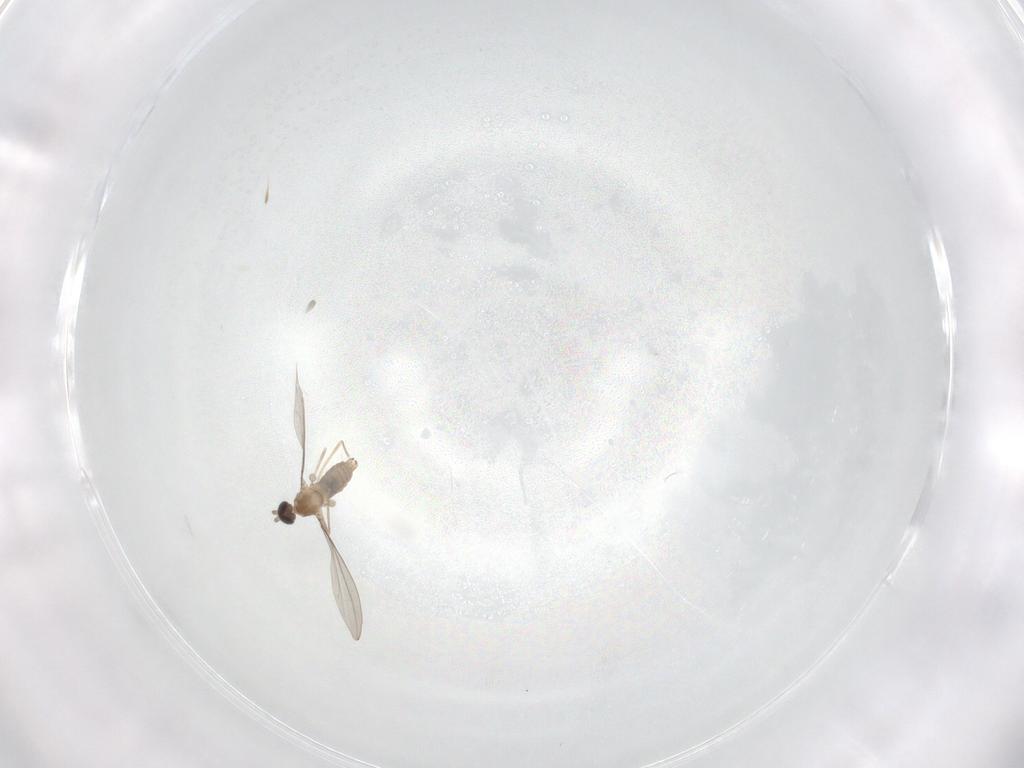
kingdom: Animalia
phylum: Arthropoda
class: Insecta
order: Diptera
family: Cecidomyiidae
